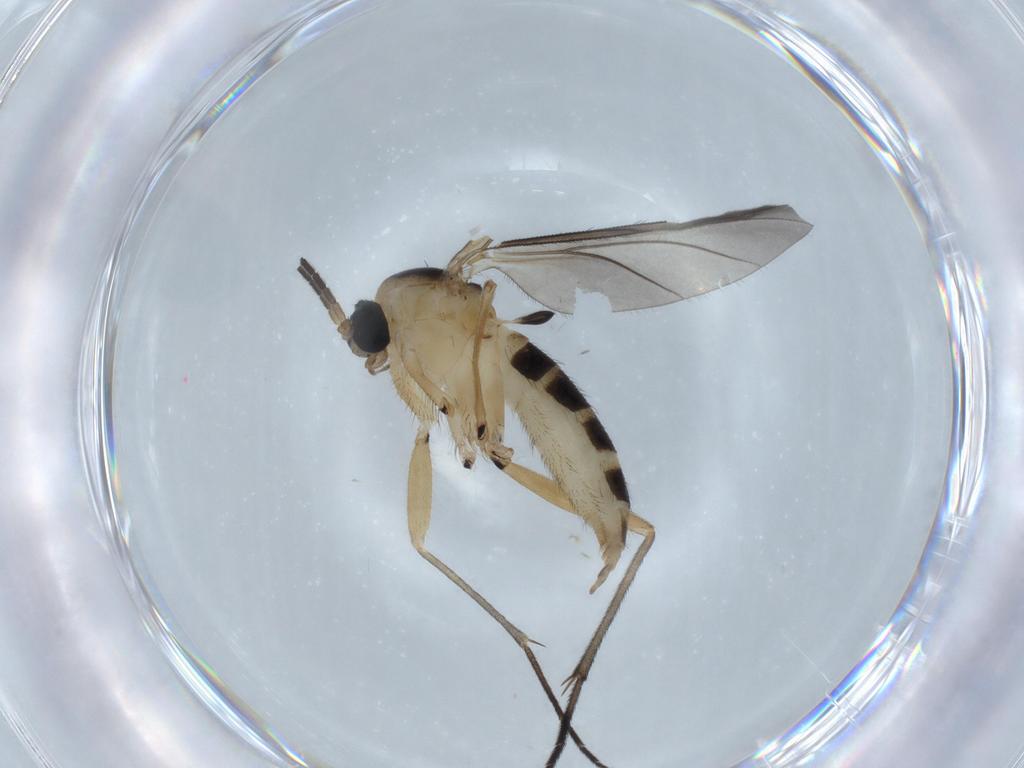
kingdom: Animalia
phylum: Arthropoda
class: Insecta
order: Diptera
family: Sciaridae
